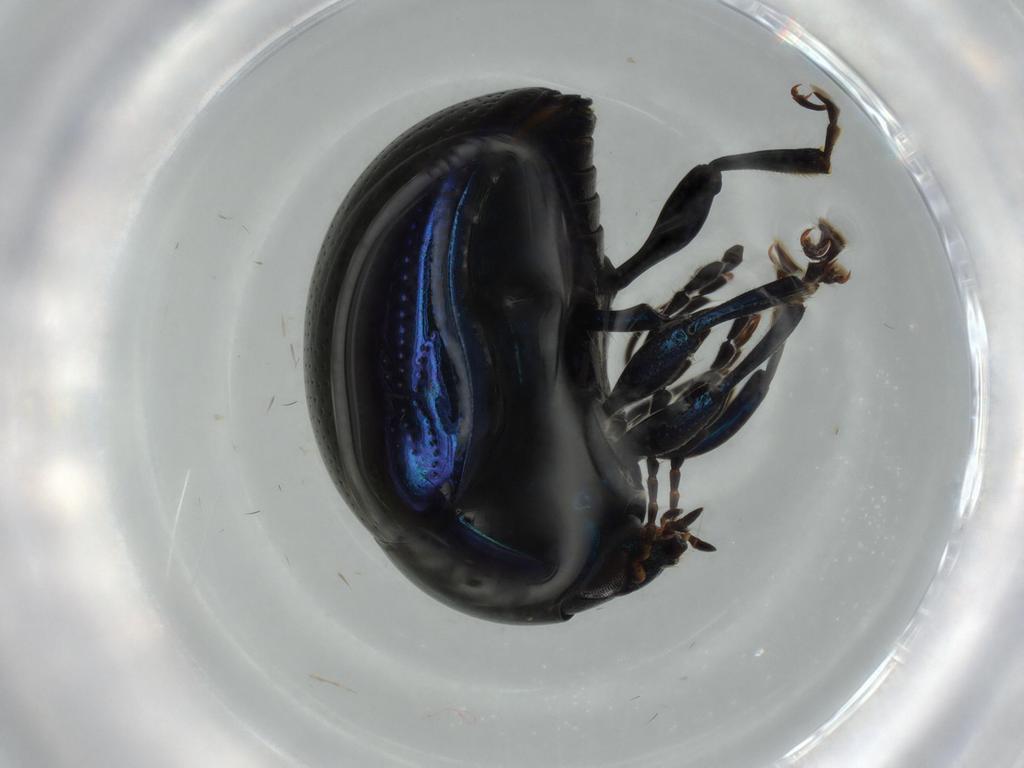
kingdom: Animalia
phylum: Arthropoda
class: Insecta
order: Coleoptera
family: Chrysomelidae
